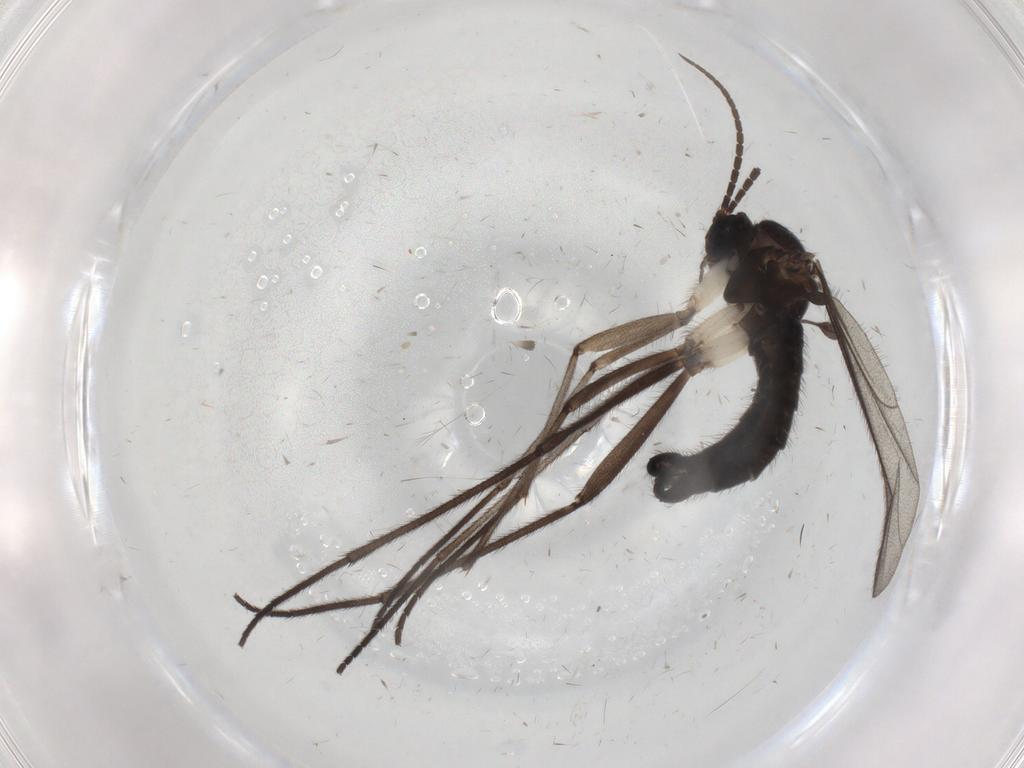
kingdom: Animalia
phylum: Arthropoda
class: Insecta
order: Diptera
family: Sciaridae
